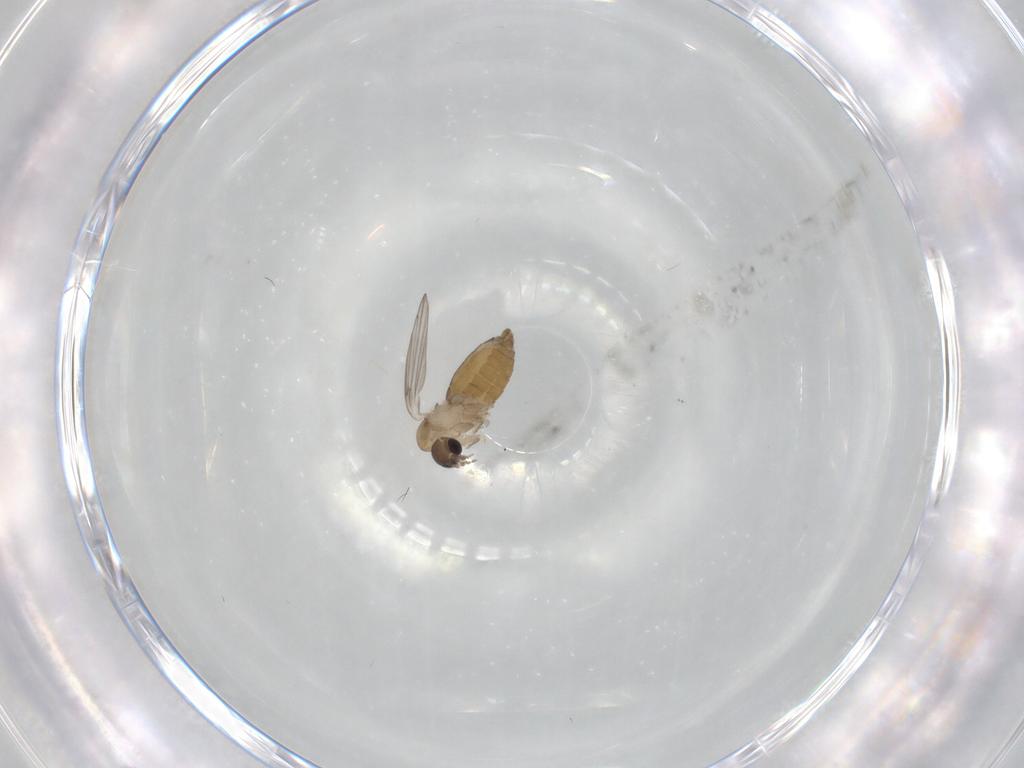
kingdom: Animalia
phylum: Arthropoda
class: Insecta
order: Diptera
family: Psychodidae
